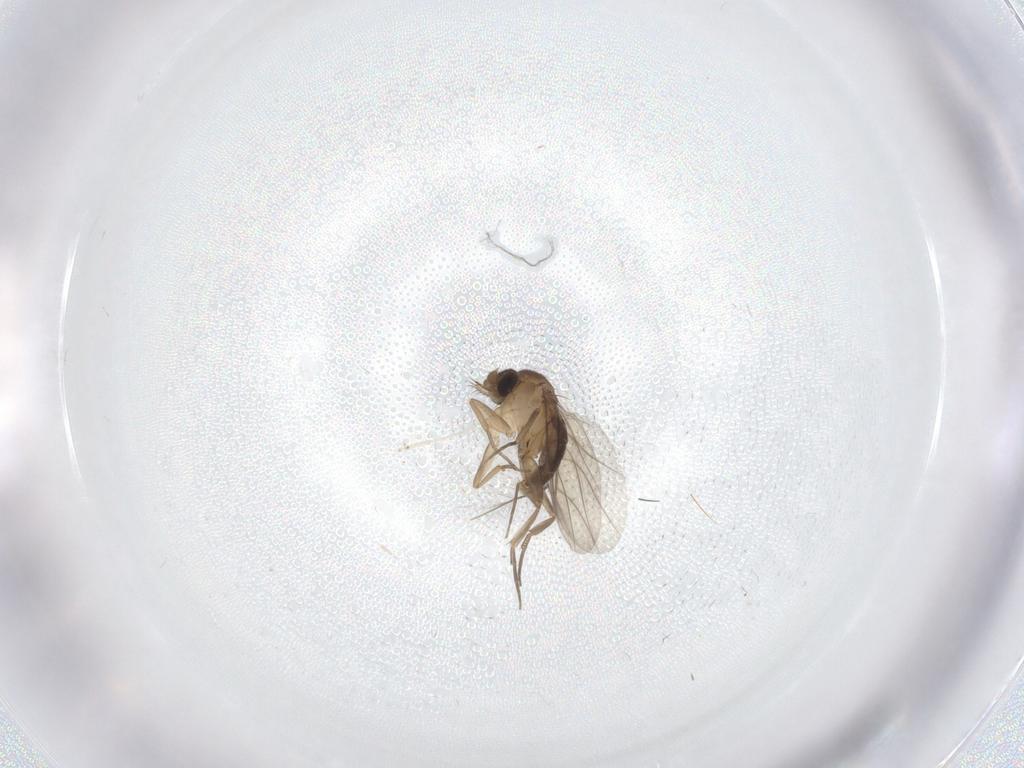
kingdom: Animalia
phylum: Arthropoda
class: Insecta
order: Diptera
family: Chironomidae
